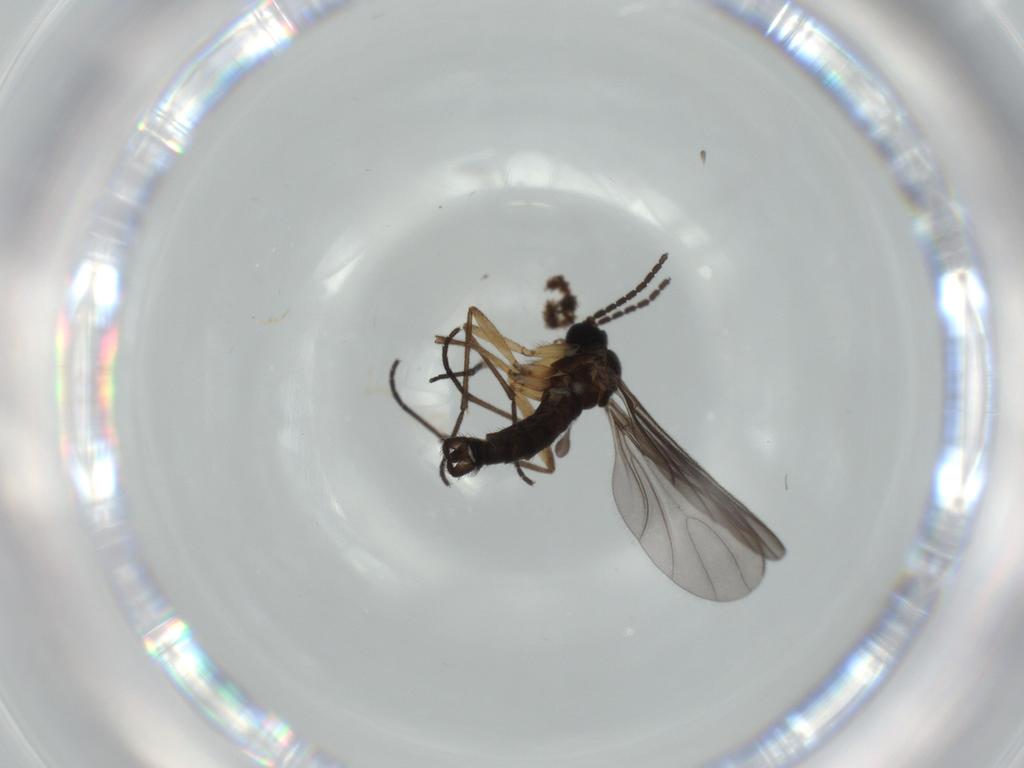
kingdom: Animalia
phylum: Arthropoda
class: Insecta
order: Diptera
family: Sciaridae
